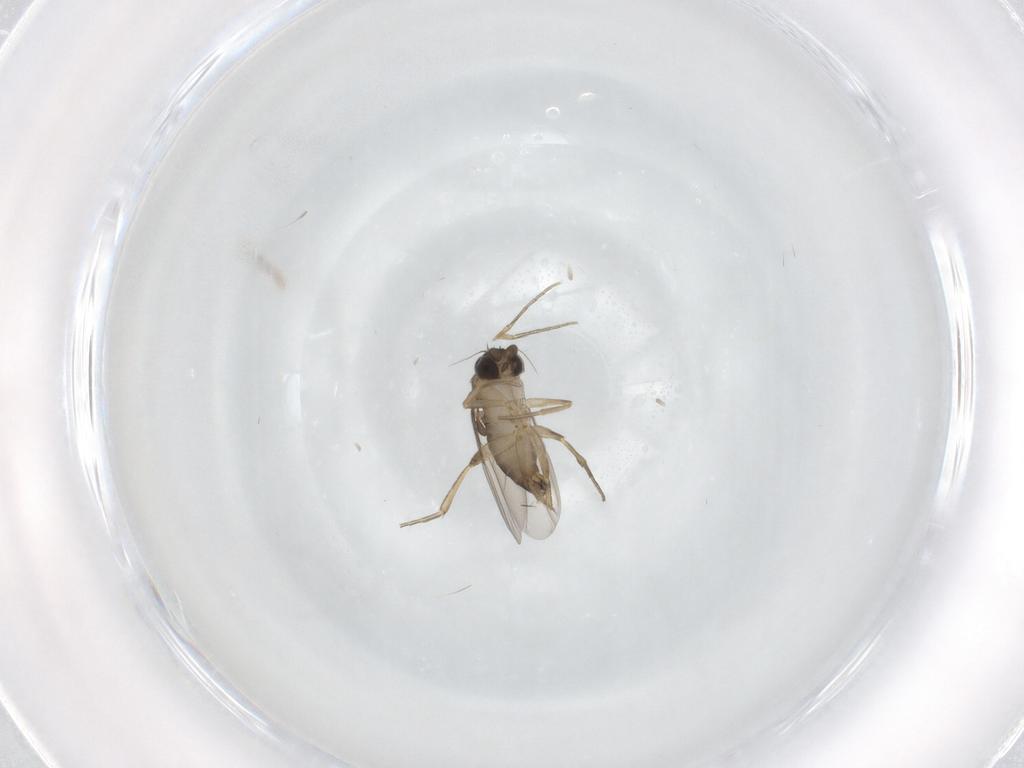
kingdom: Animalia
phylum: Arthropoda
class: Insecta
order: Diptera
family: Phoridae
